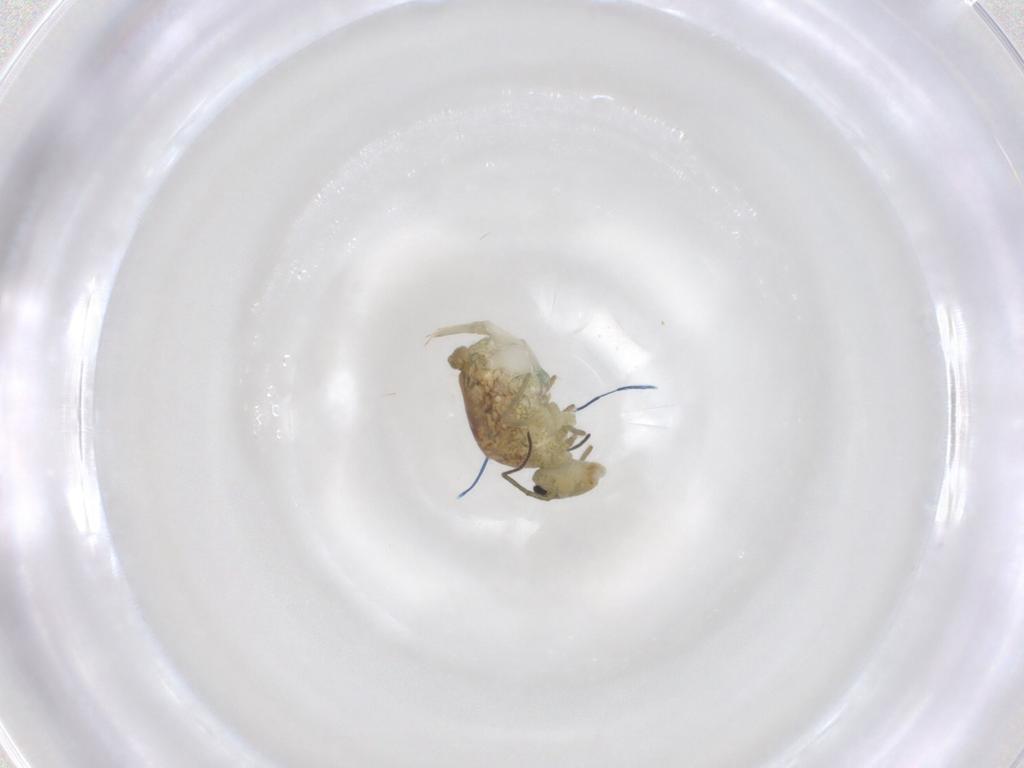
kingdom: Animalia
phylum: Arthropoda
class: Collembola
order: Symphypleona
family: Sminthuridae
